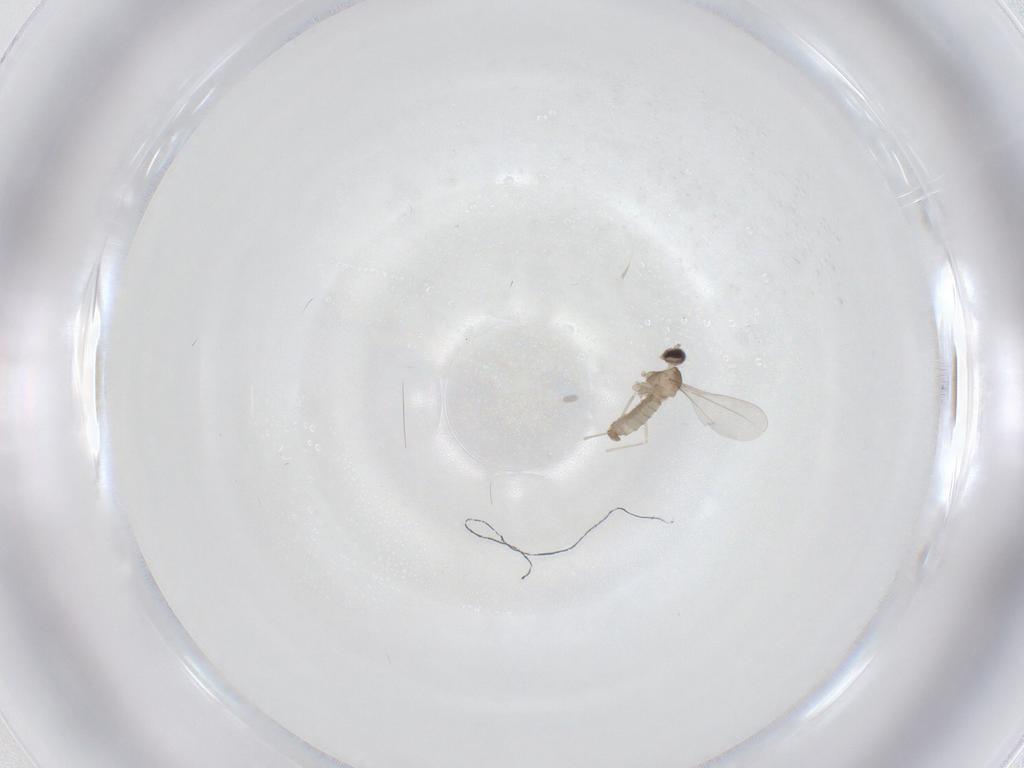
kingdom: Animalia
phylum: Arthropoda
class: Insecta
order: Diptera
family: Cecidomyiidae
